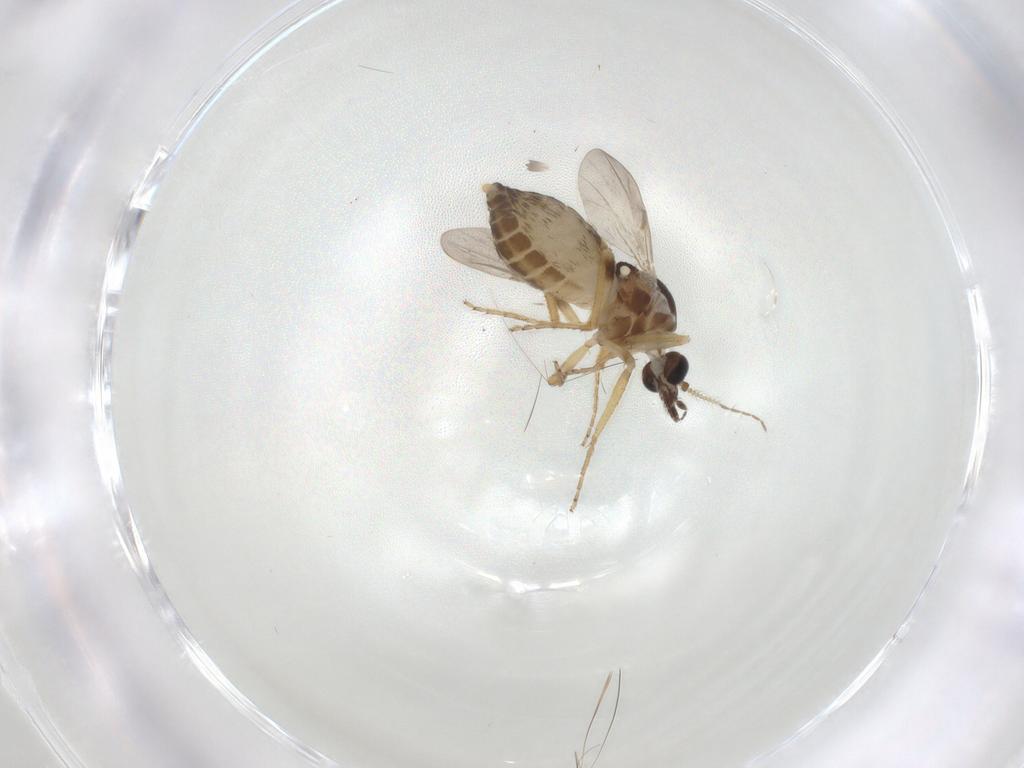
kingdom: Animalia
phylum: Arthropoda
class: Insecta
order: Diptera
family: Ceratopogonidae
